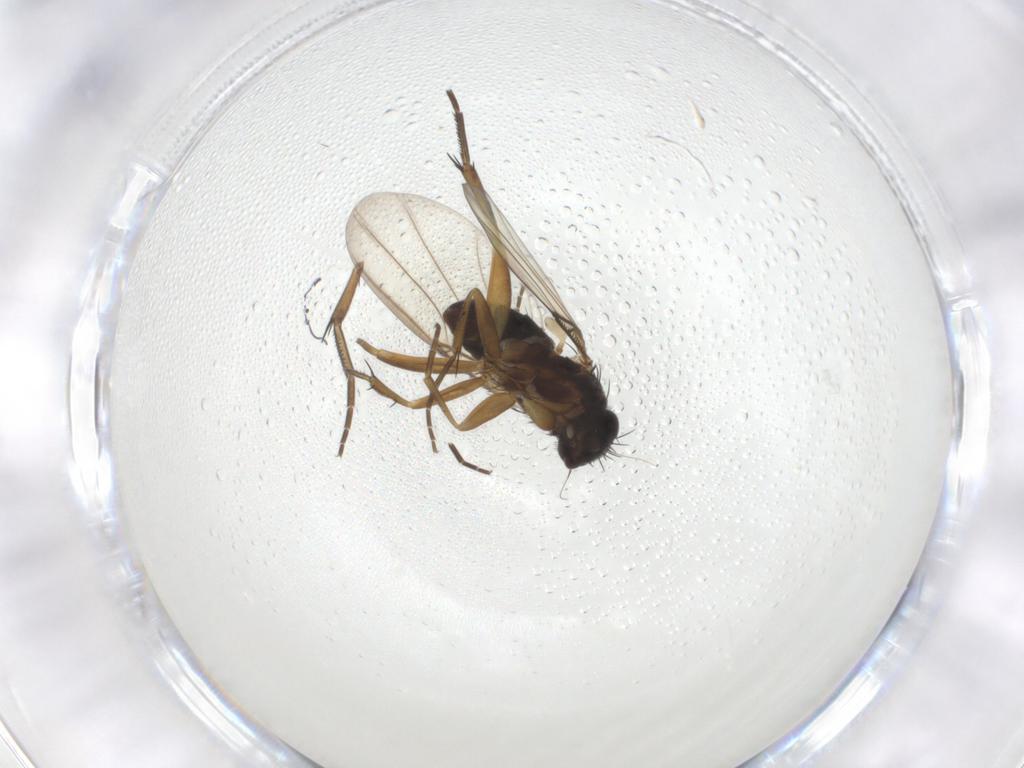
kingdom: Animalia
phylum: Arthropoda
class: Insecta
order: Diptera
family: Phoridae
